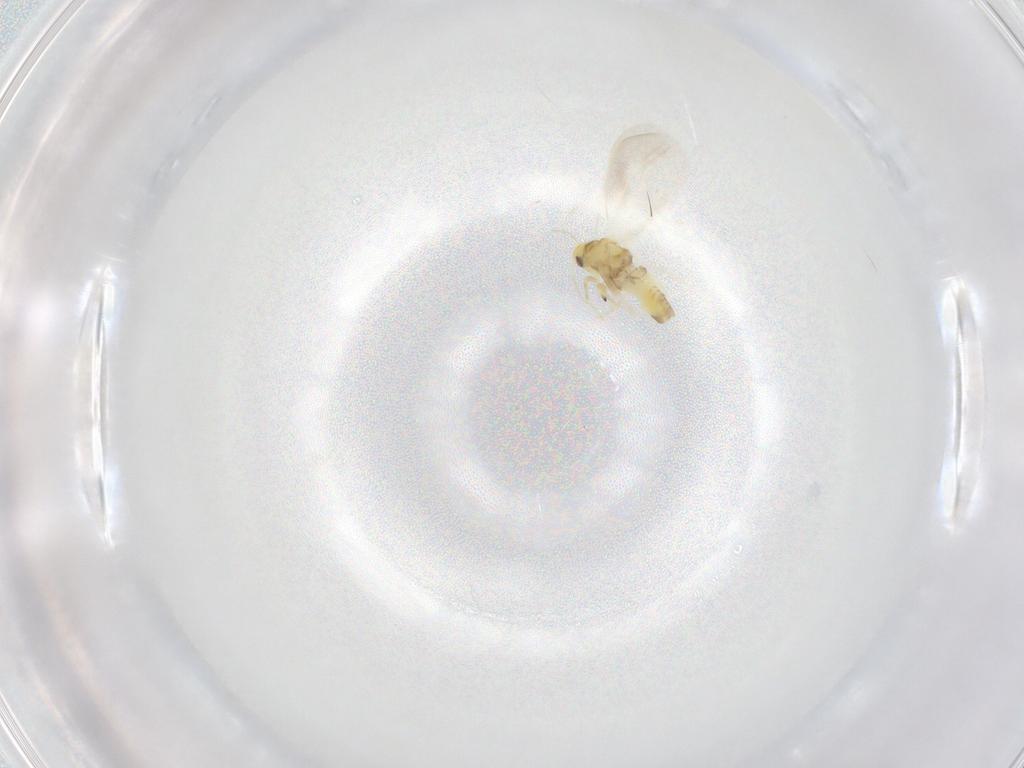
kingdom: Animalia
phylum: Arthropoda
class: Insecta
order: Hemiptera
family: Aleyrodidae
